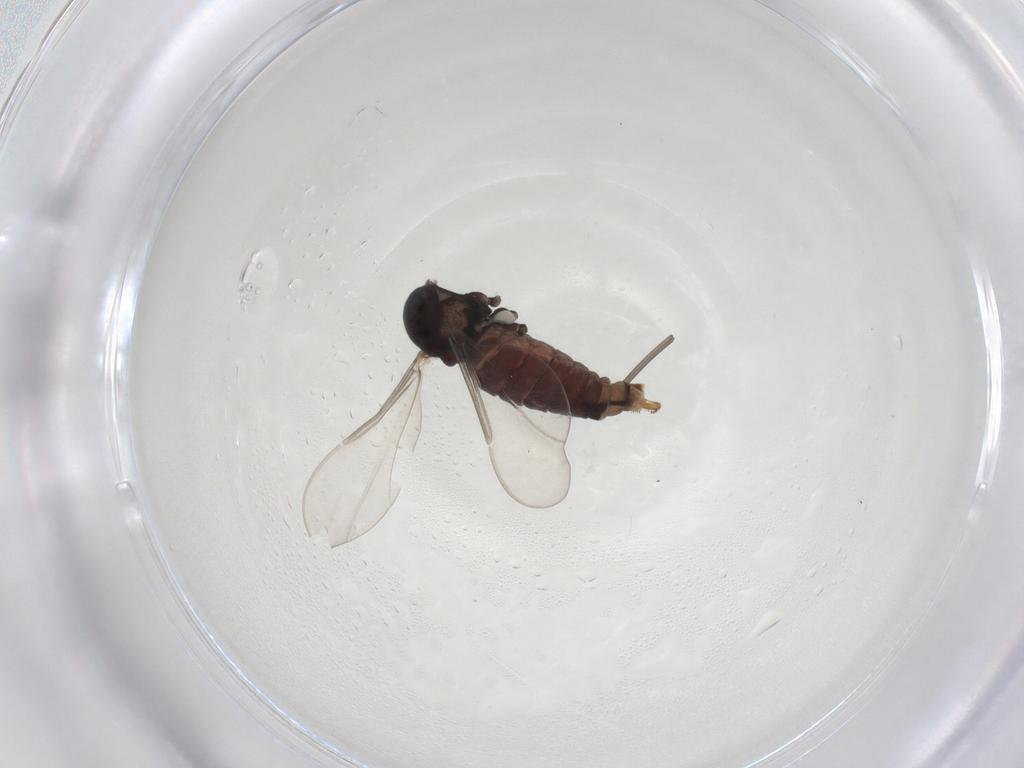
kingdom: Animalia
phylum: Arthropoda
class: Insecta
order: Diptera
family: Cecidomyiidae
